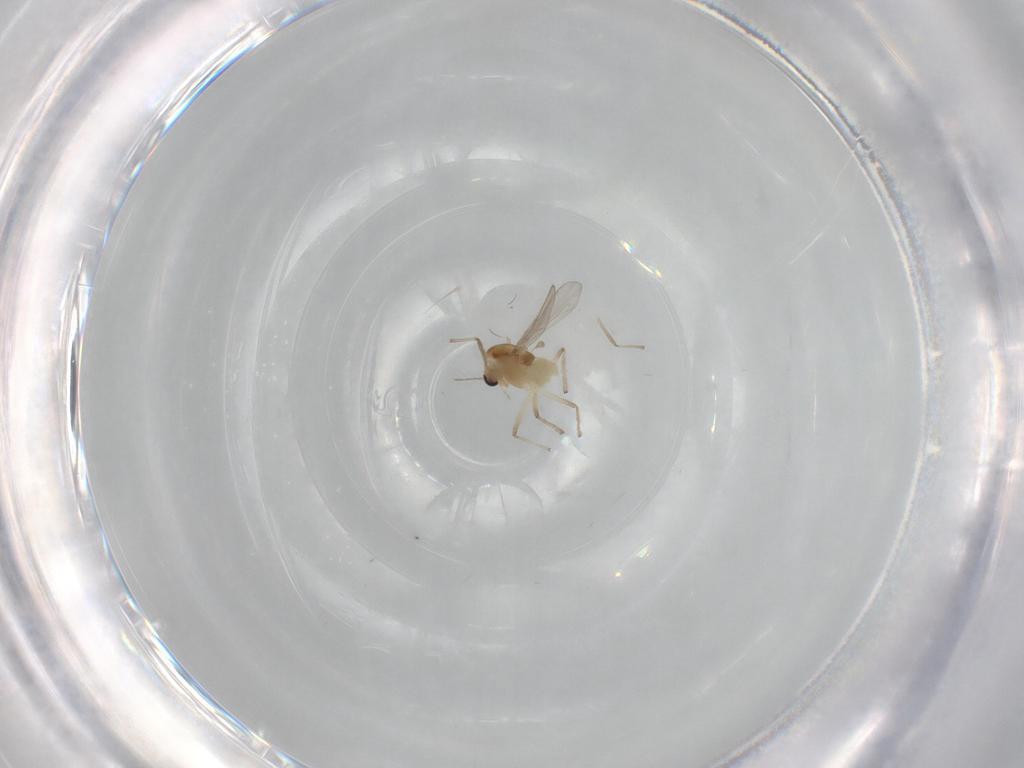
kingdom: Animalia
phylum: Arthropoda
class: Insecta
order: Diptera
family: Chironomidae
